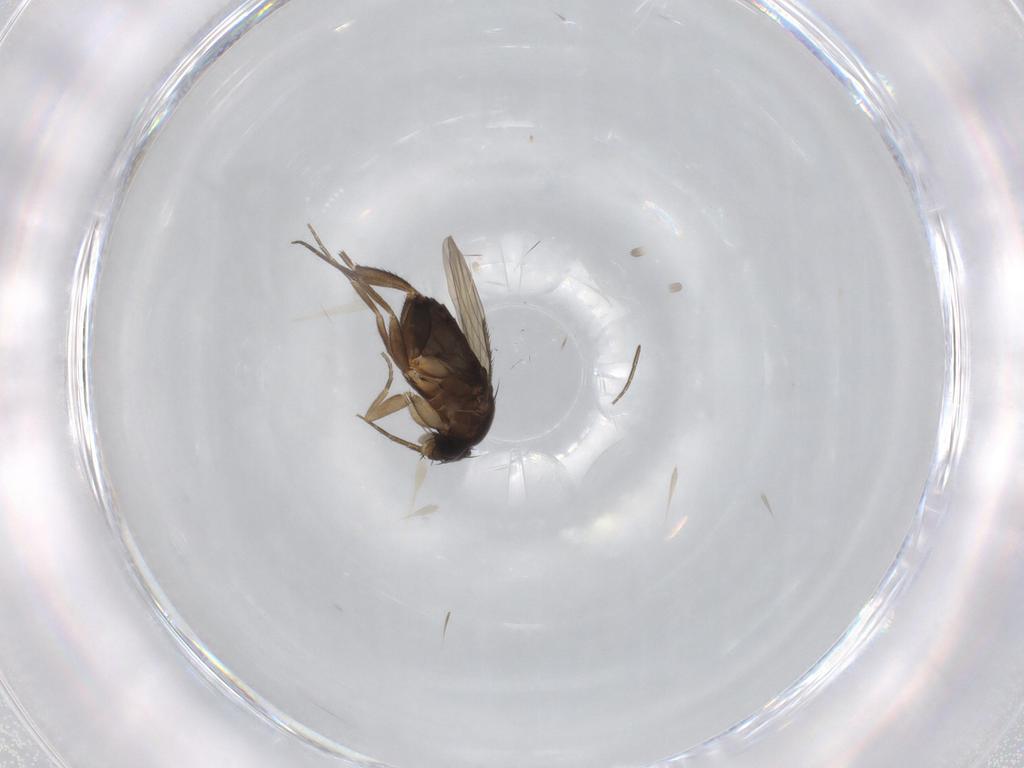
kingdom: Animalia
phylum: Arthropoda
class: Insecta
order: Diptera
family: Phoridae
